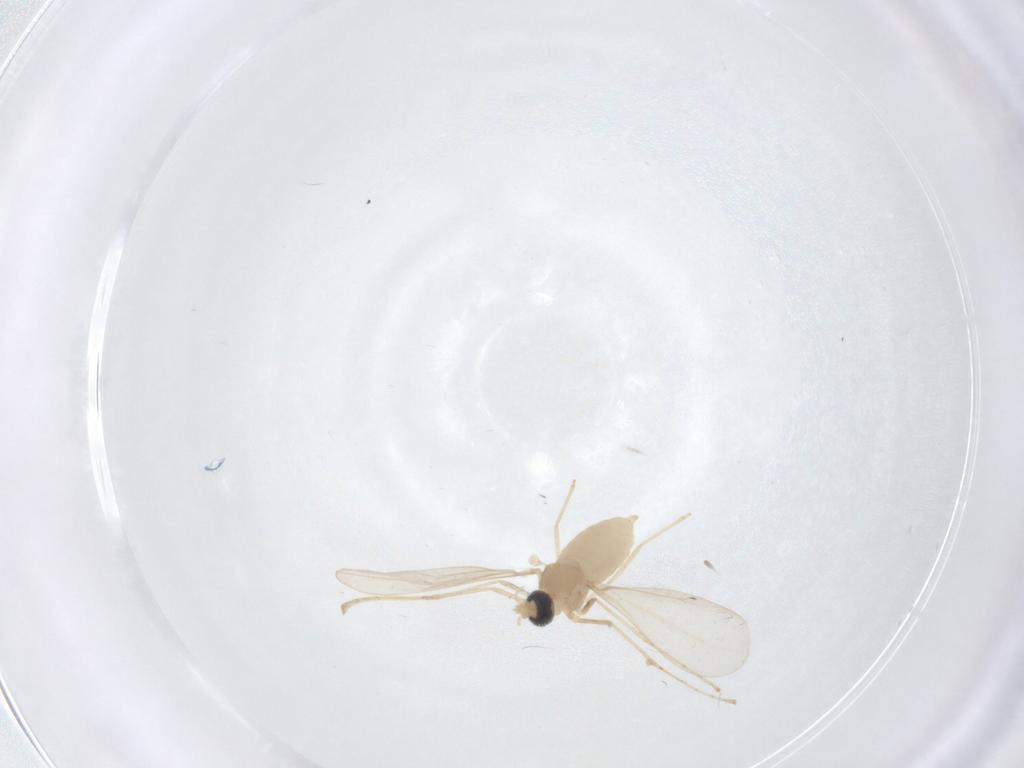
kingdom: Animalia
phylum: Arthropoda
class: Insecta
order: Diptera
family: Cecidomyiidae
